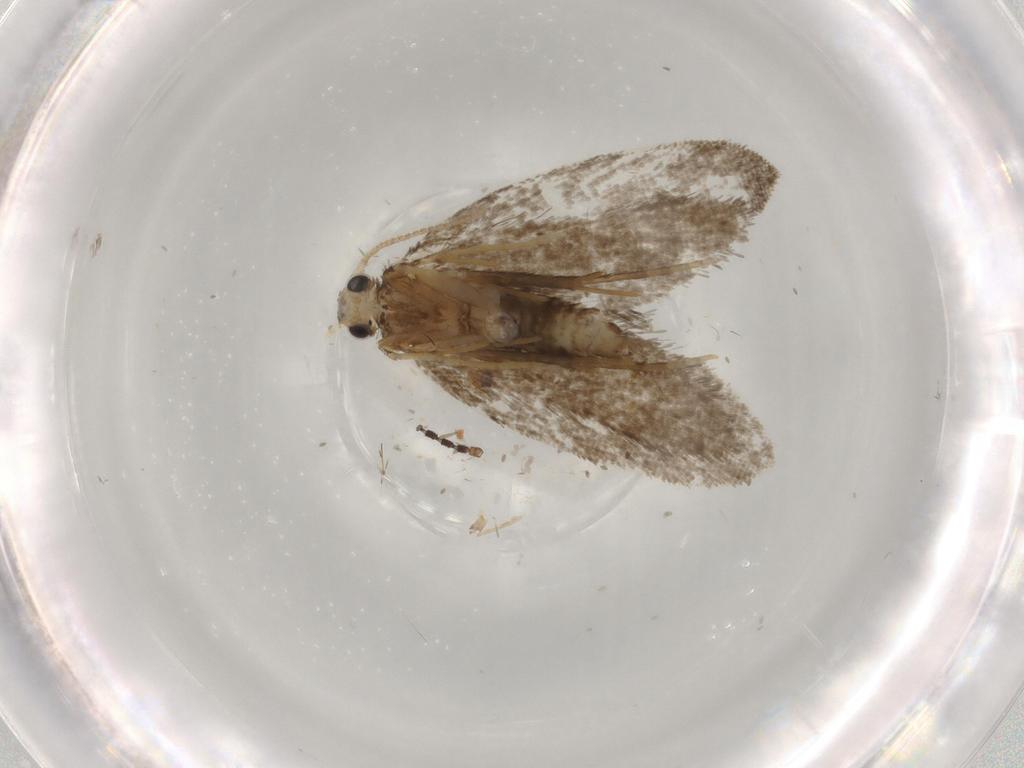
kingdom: Animalia
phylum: Arthropoda
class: Insecta
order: Lepidoptera
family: Psychidae
